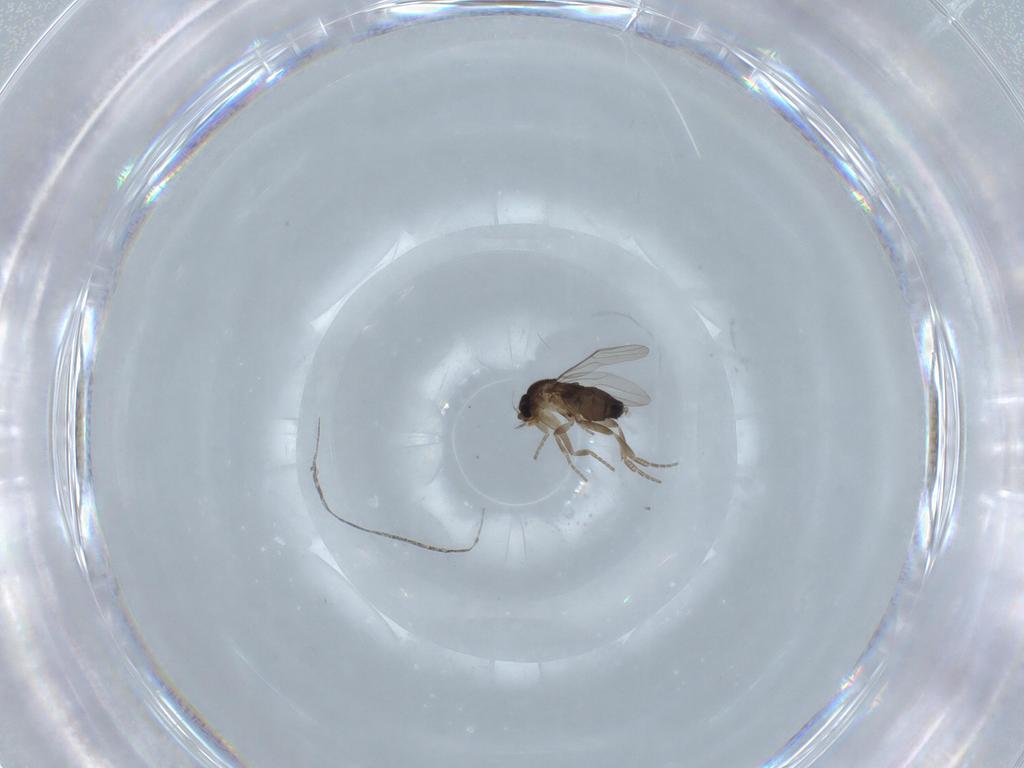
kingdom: Animalia
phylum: Arthropoda
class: Insecta
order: Diptera
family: Phoridae
